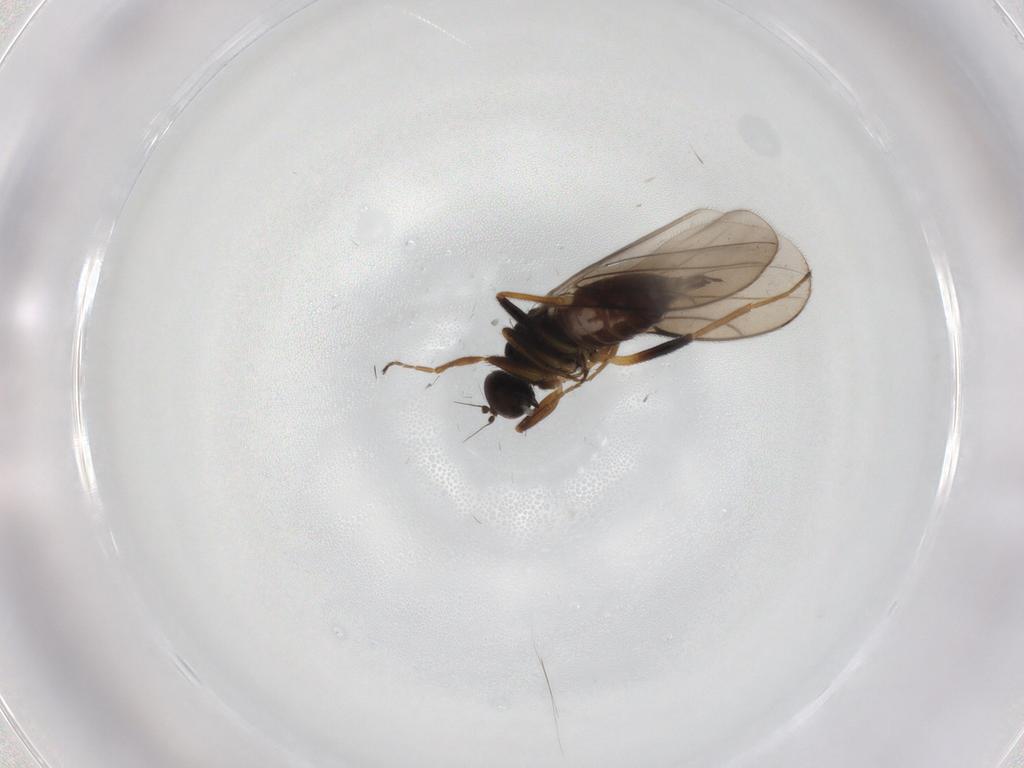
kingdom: Animalia
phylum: Arthropoda
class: Insecta
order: Diptera
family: Hybotidae
